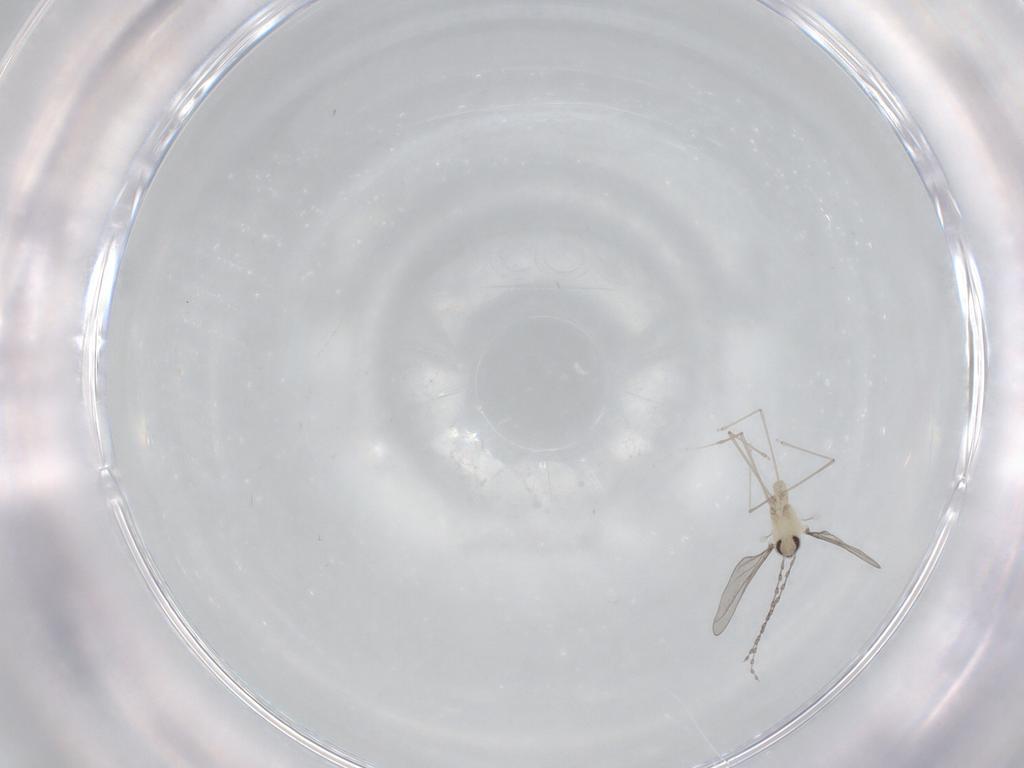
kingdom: Animalia
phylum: Arthropoda
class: Insecta
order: Diptera
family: Cecidomyiidae
